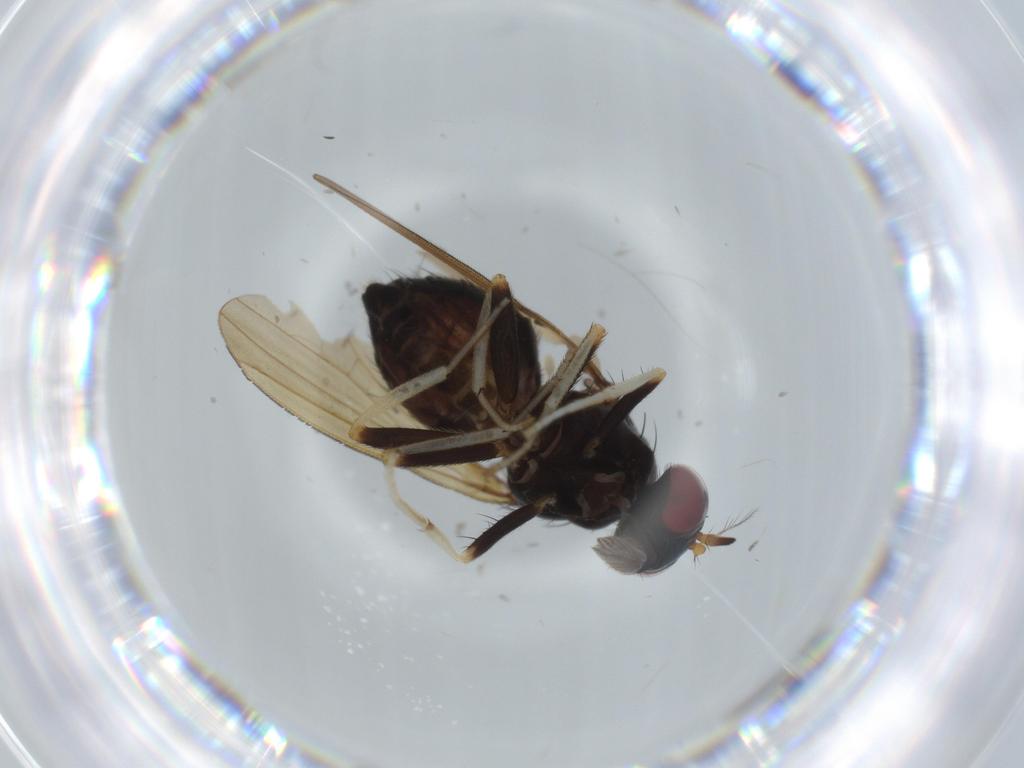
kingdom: Animalia
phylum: Arthropoda
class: Insecta
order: Diptera
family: Lauxaniidae
